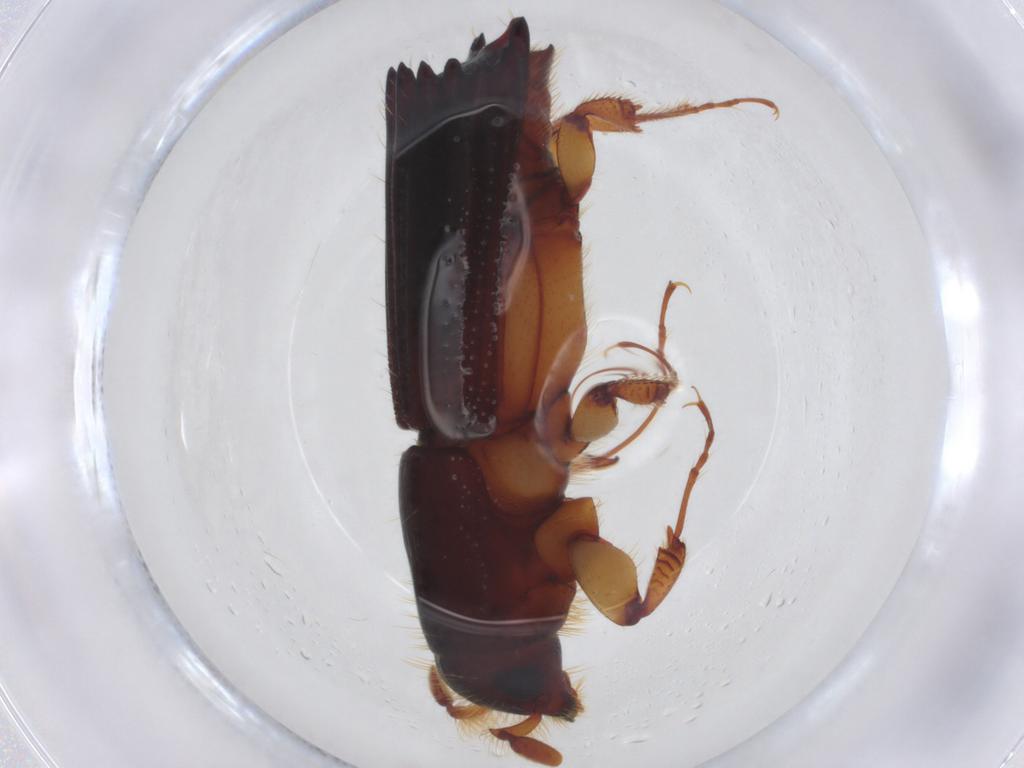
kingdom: Animalia
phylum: Arthropoda
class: Insecta
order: Coleoptera
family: Curculionidae
